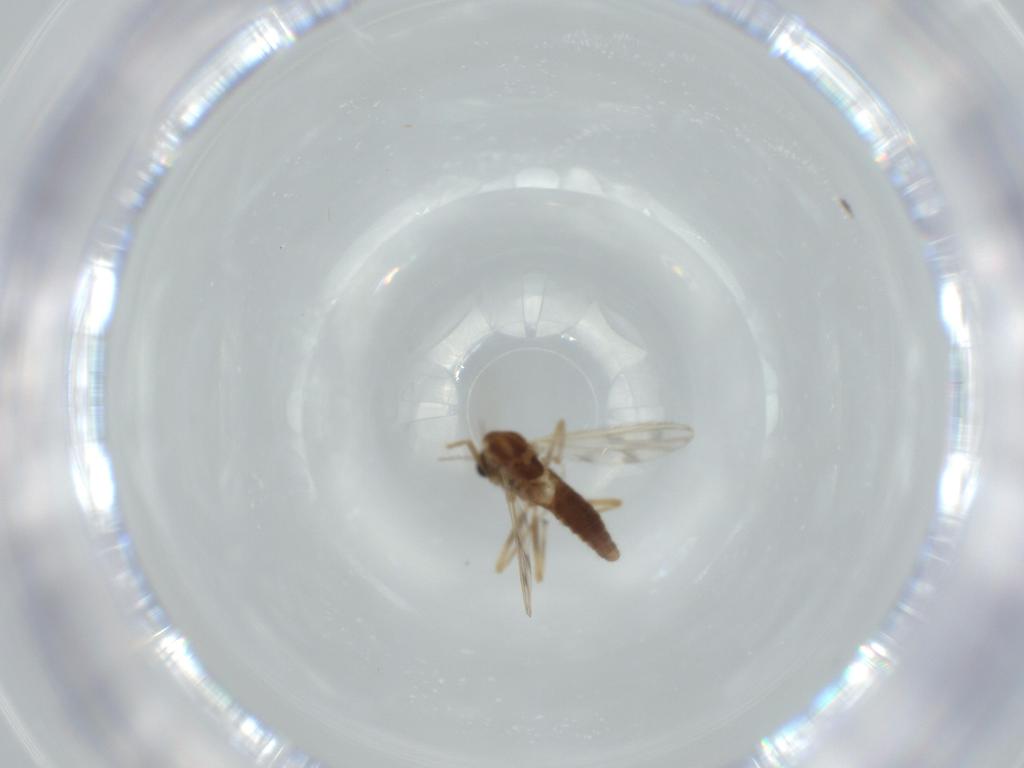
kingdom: Animalia
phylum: Arthropoda
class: Insecta
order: Diptera
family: Chironomidae
